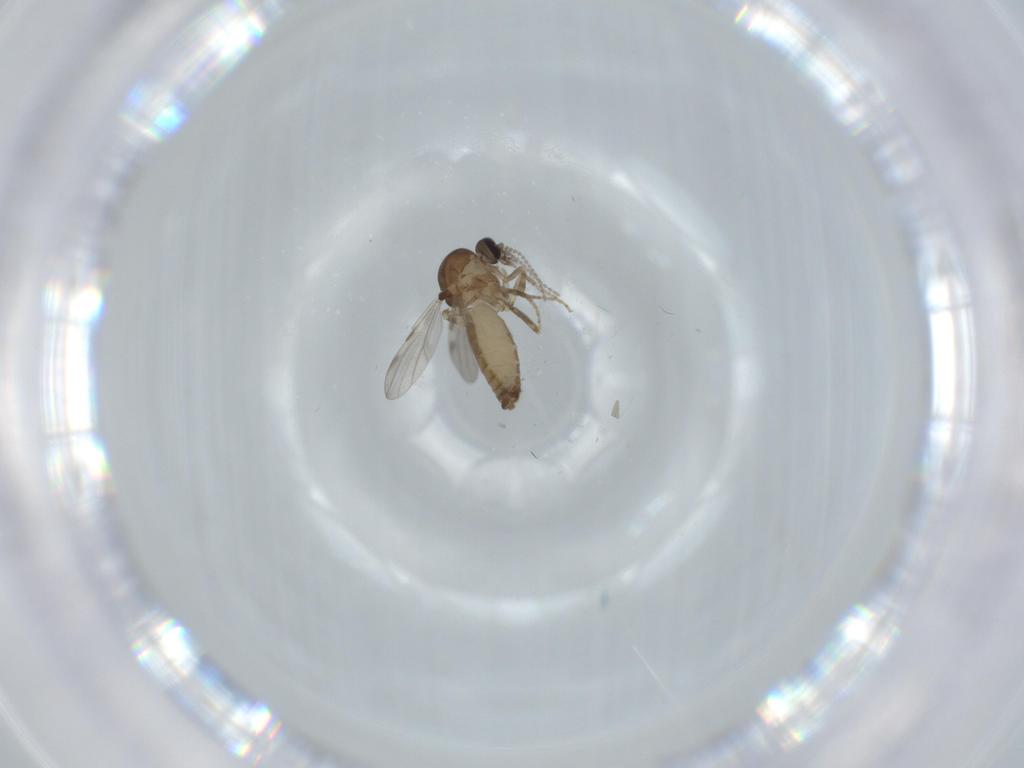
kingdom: Animalia
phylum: Arthropoda
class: Insecta
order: Diptera
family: Ceratopogonidae
